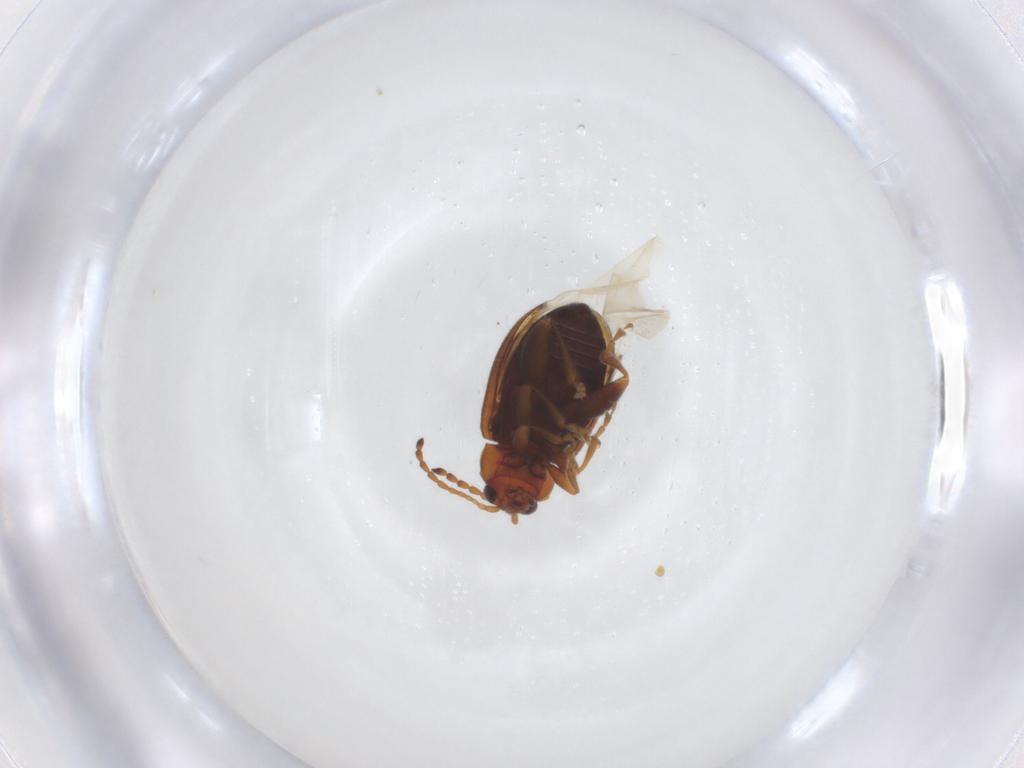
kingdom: Animalia
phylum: Arthropoda
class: Insecta
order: Coleoptera
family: Chrysomelidae
